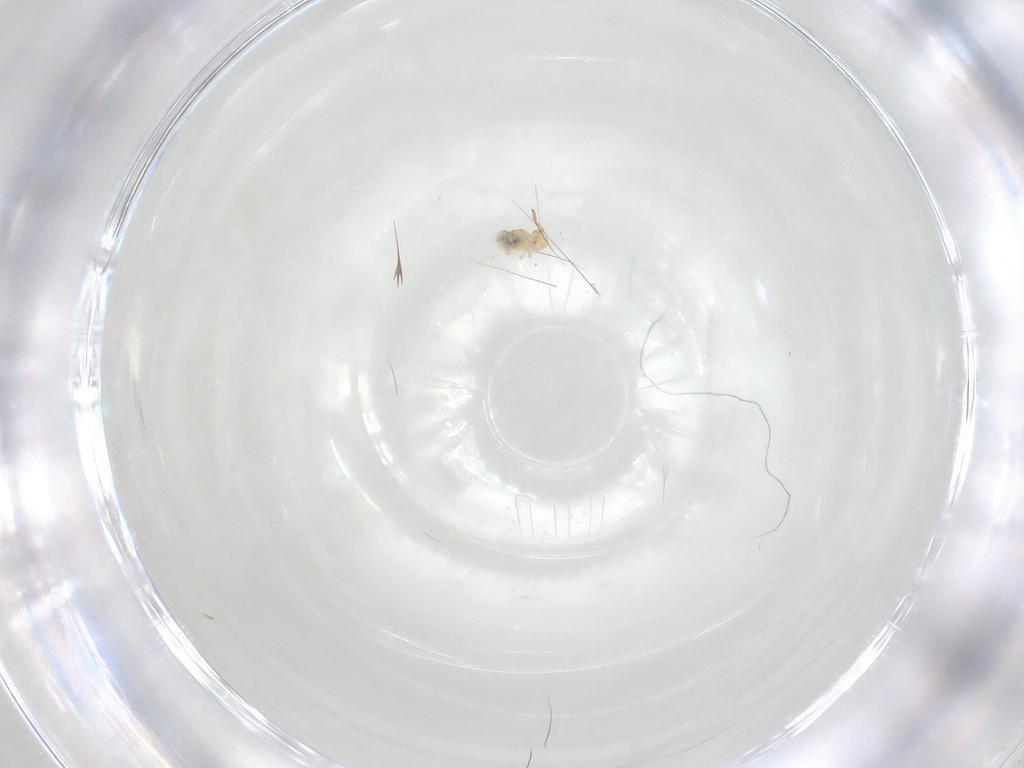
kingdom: Animalia
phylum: Arthropoda
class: Collembola
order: Symphypleona
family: Bourletiellidae
